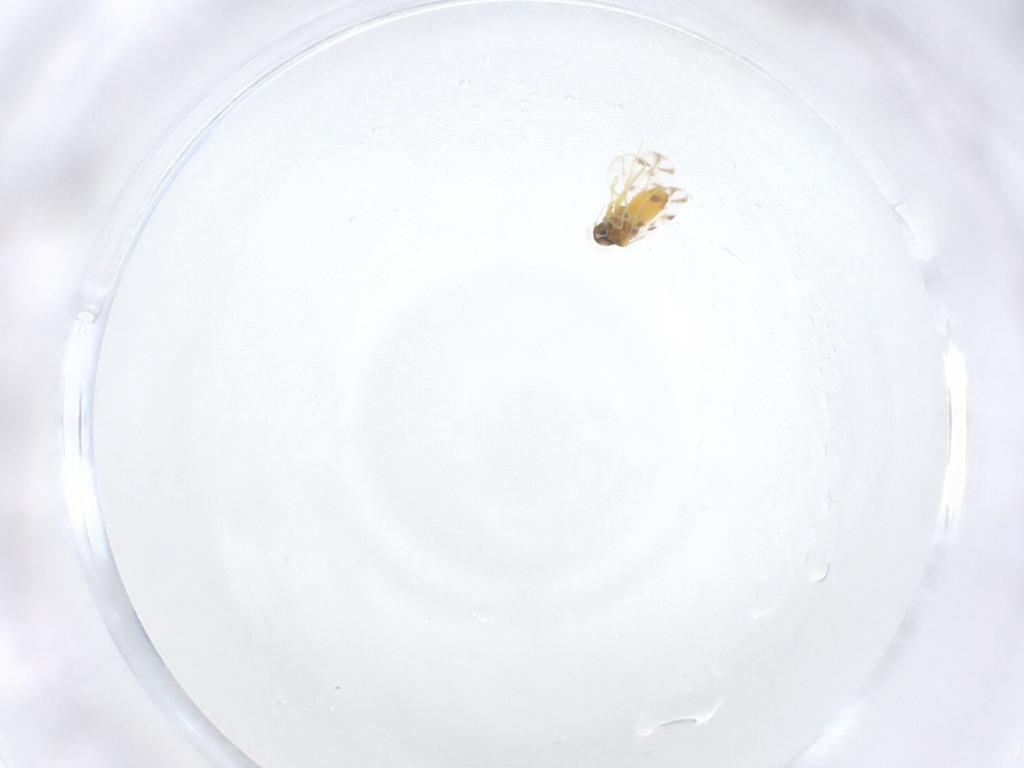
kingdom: Animalia
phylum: Arthropoda
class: Insecta
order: Hemiptera
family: Aleyrodidae
